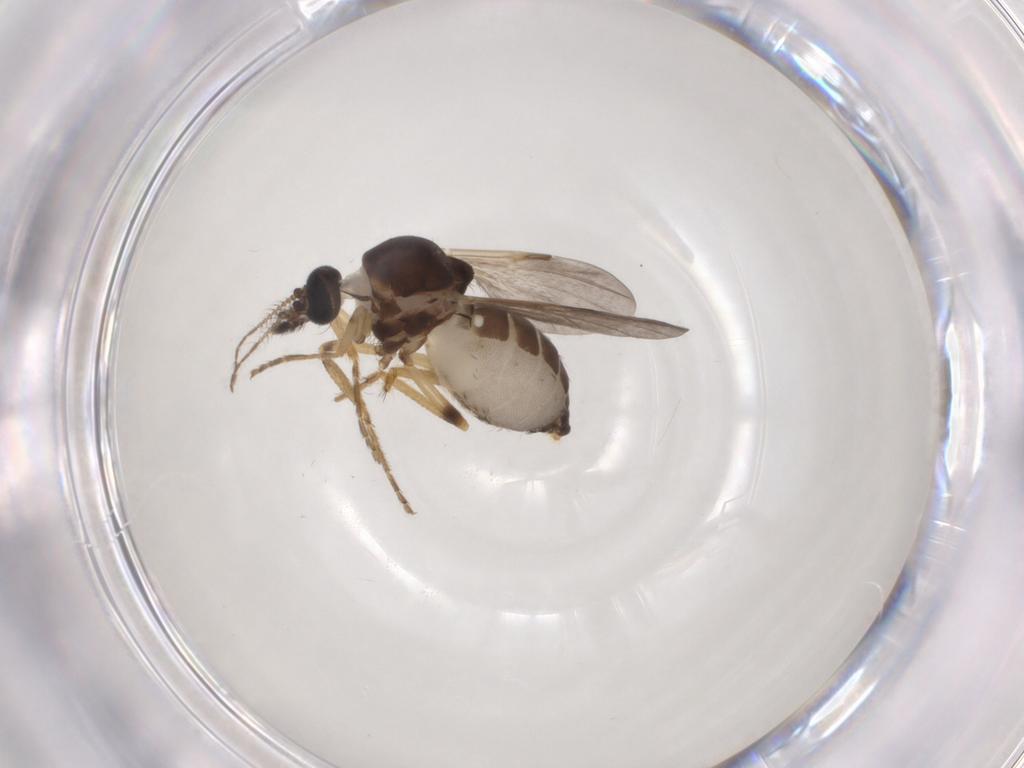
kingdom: Animalia
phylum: Arthropoda
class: Insecta
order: Diptera
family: Ceratopogonidae
